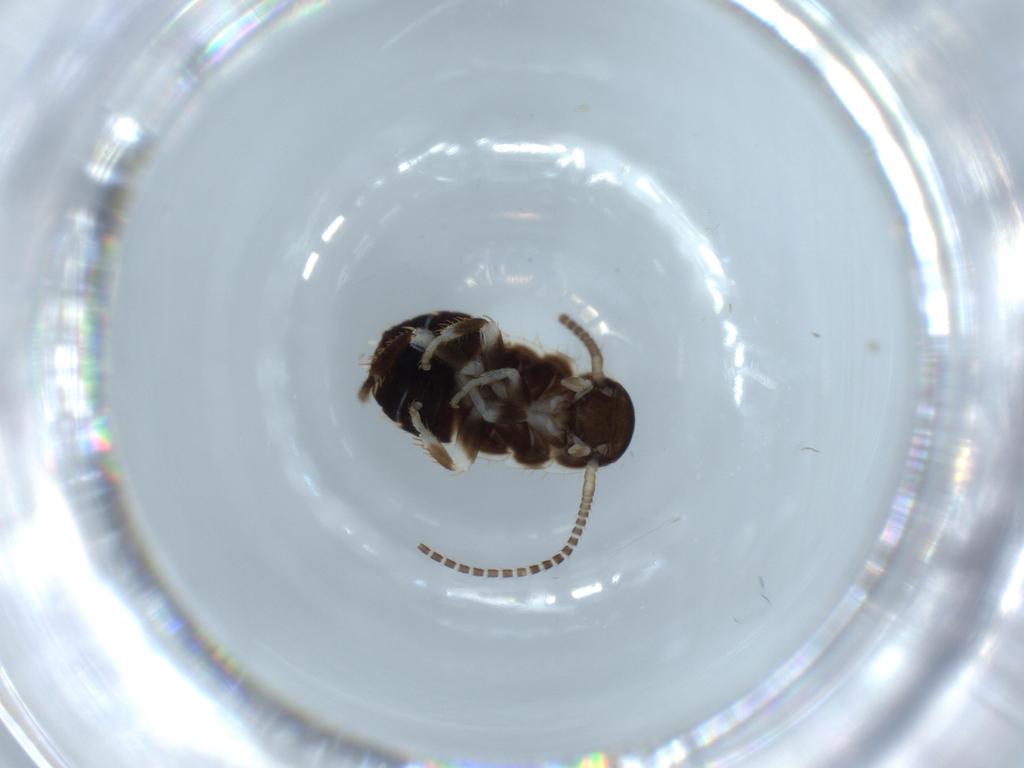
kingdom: Animalia
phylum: Arthropoda
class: Insecta
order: Blattodea
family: Ectobiidae
